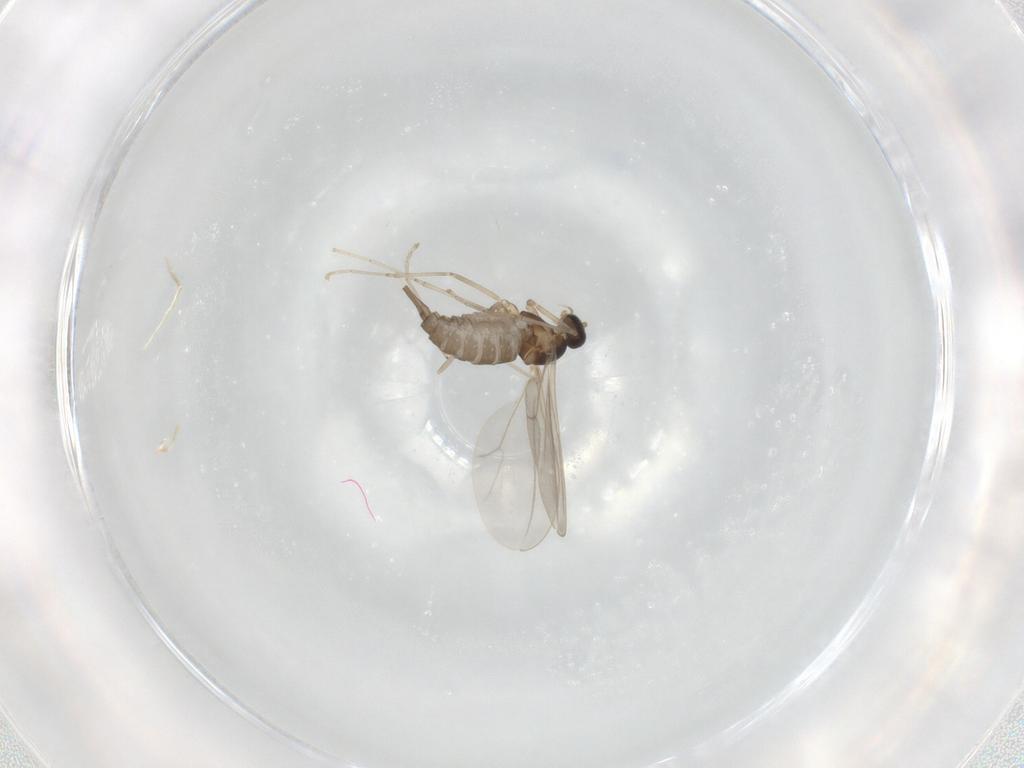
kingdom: Animalia
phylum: Arthropoda
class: Insecta
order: Diptera
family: Cecidomyiidae
